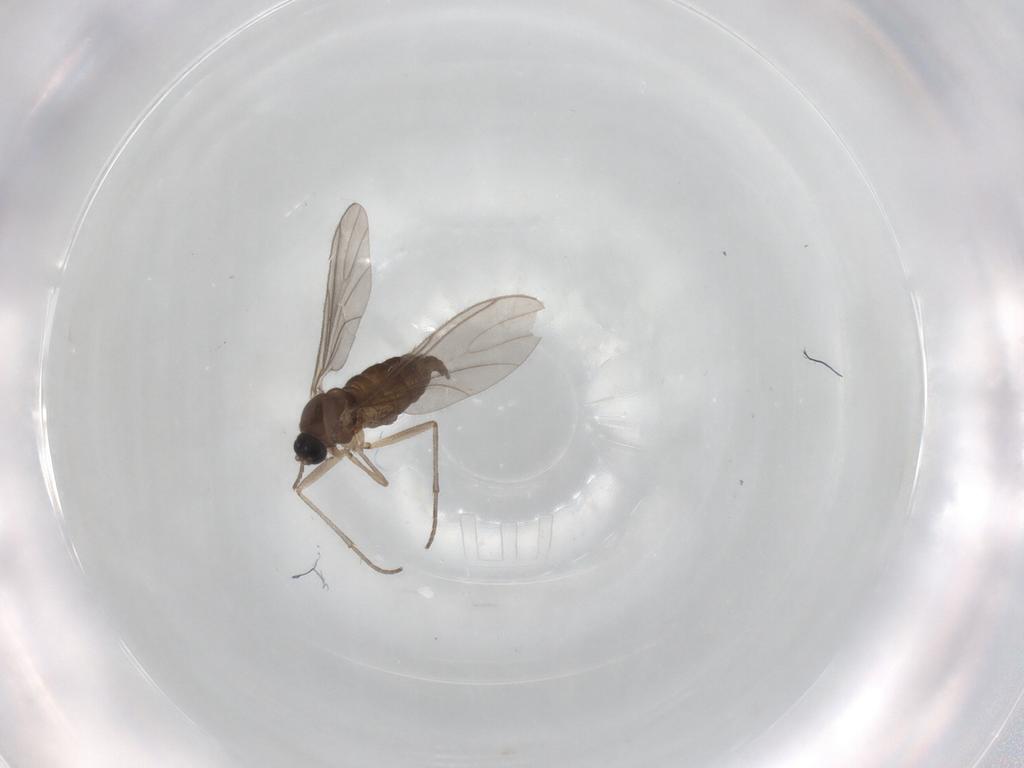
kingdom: Animalia
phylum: Arthropoda
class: Insecta
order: Diptera
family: Sciaridae
